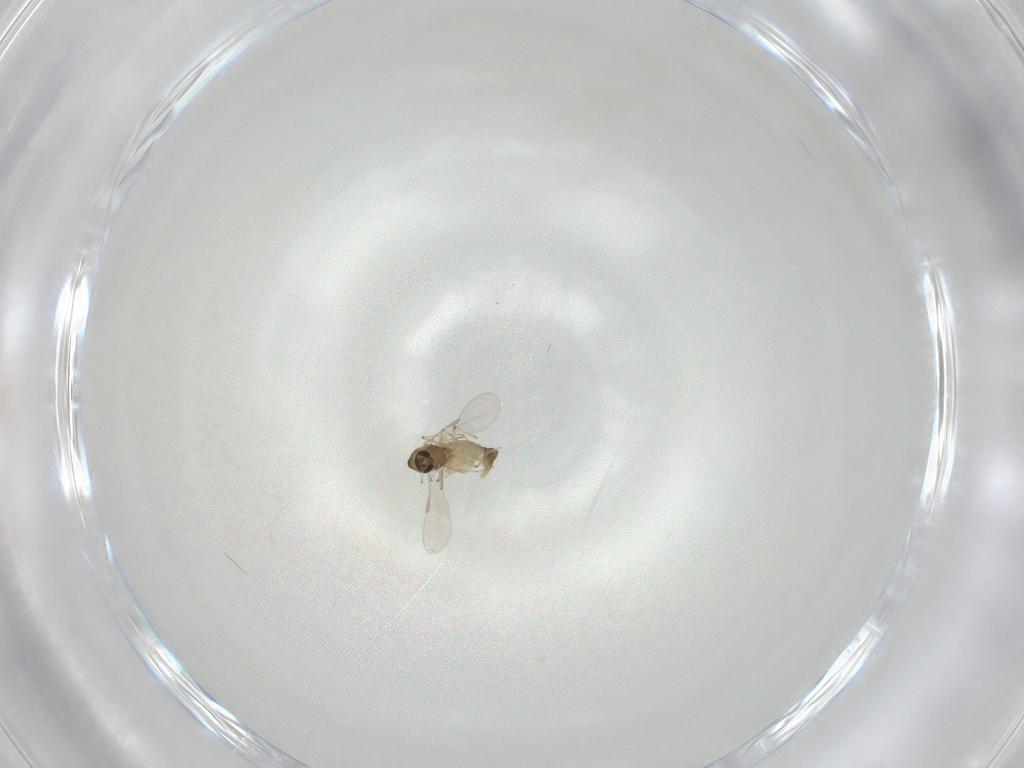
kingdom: Animalia
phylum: Arthropoda
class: Insecta
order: Diptera
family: Chironomidae
